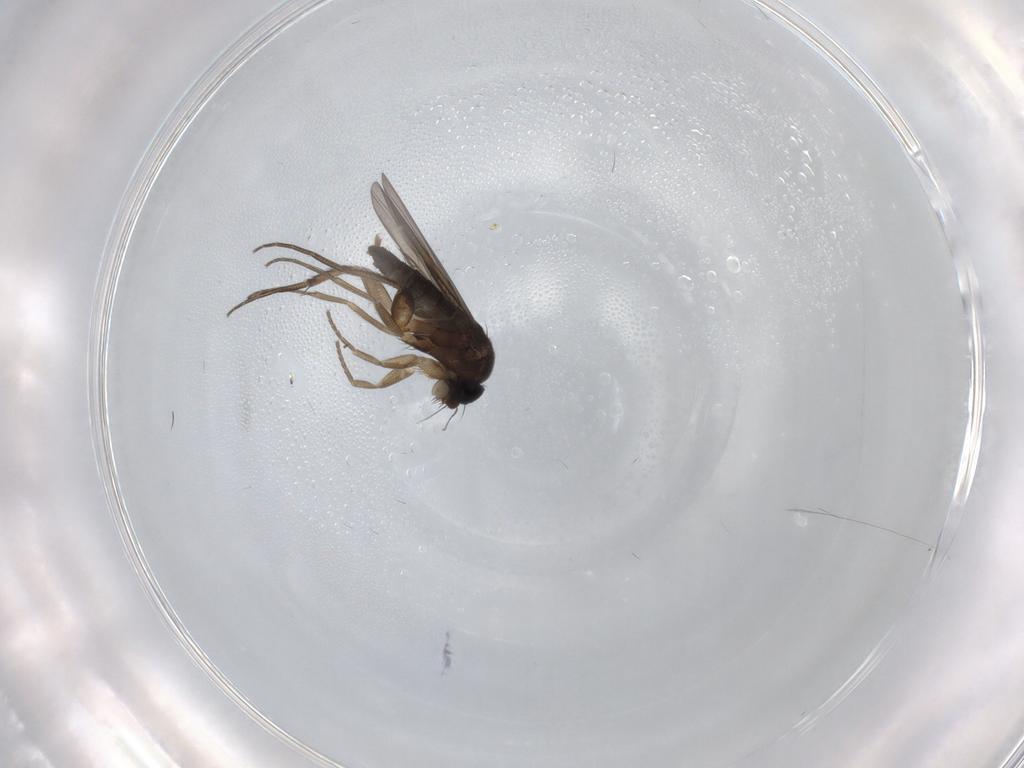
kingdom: Animalia
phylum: Arthropoda
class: Insecta
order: Diptera
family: Phoridae
